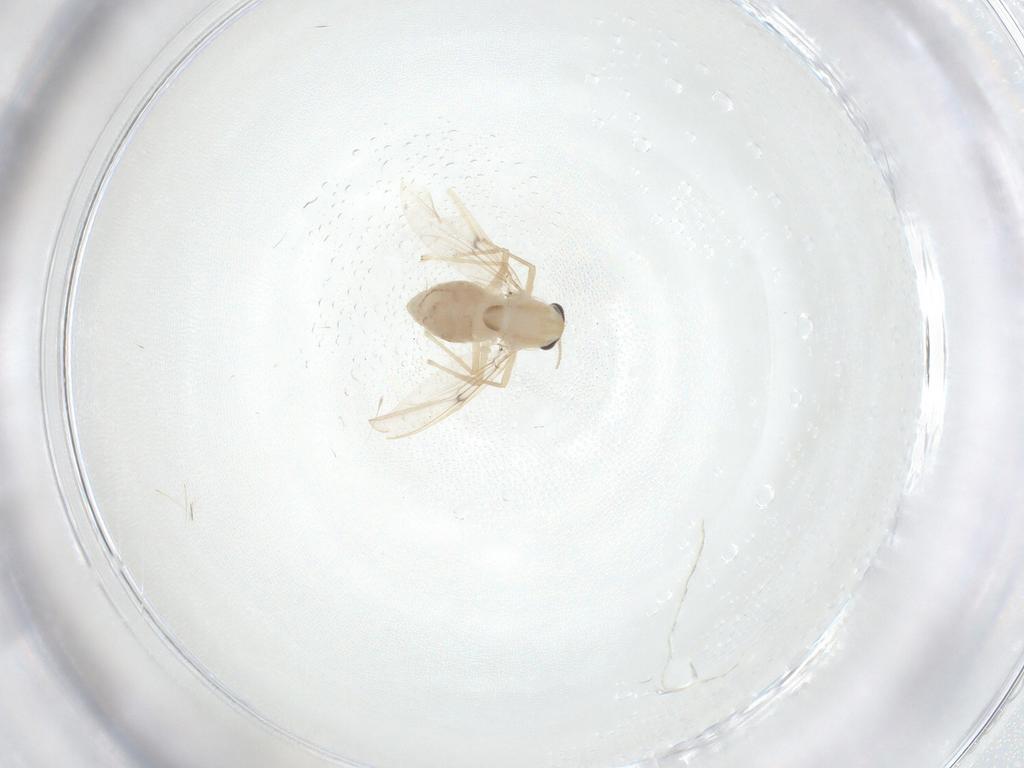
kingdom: Animalia
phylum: Arthropoda
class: Insecta
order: Diptera
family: Chironomidae
